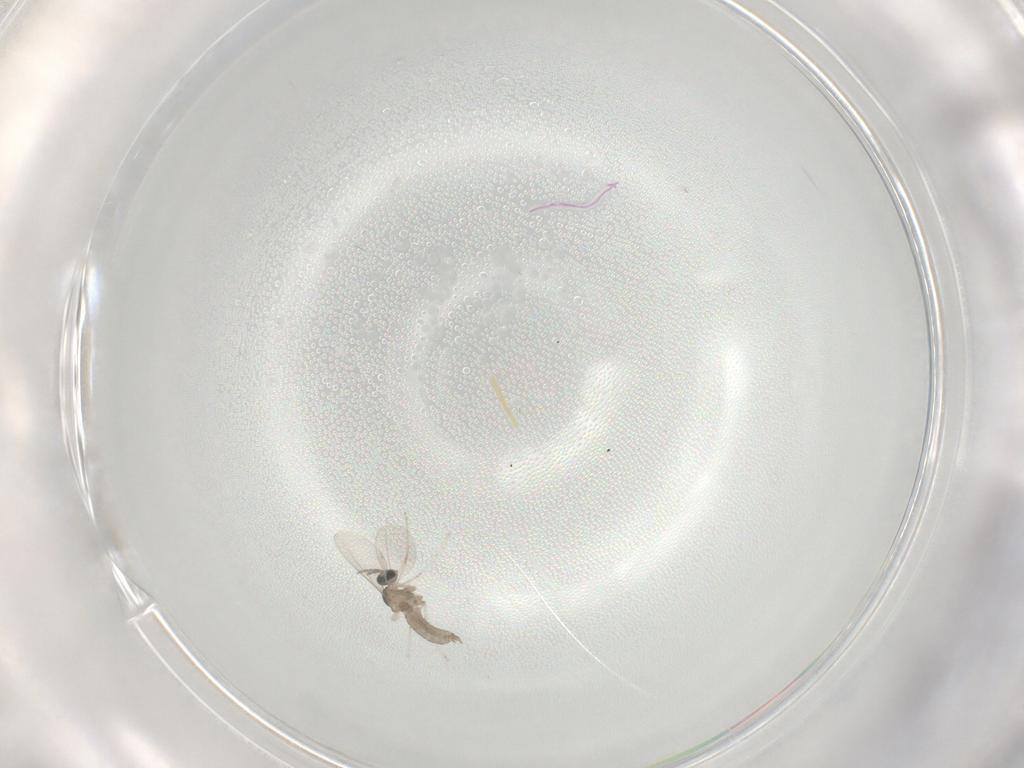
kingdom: Animalia
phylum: Arthropoda
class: Insecta
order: Diptera
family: Cecidomyiidae
